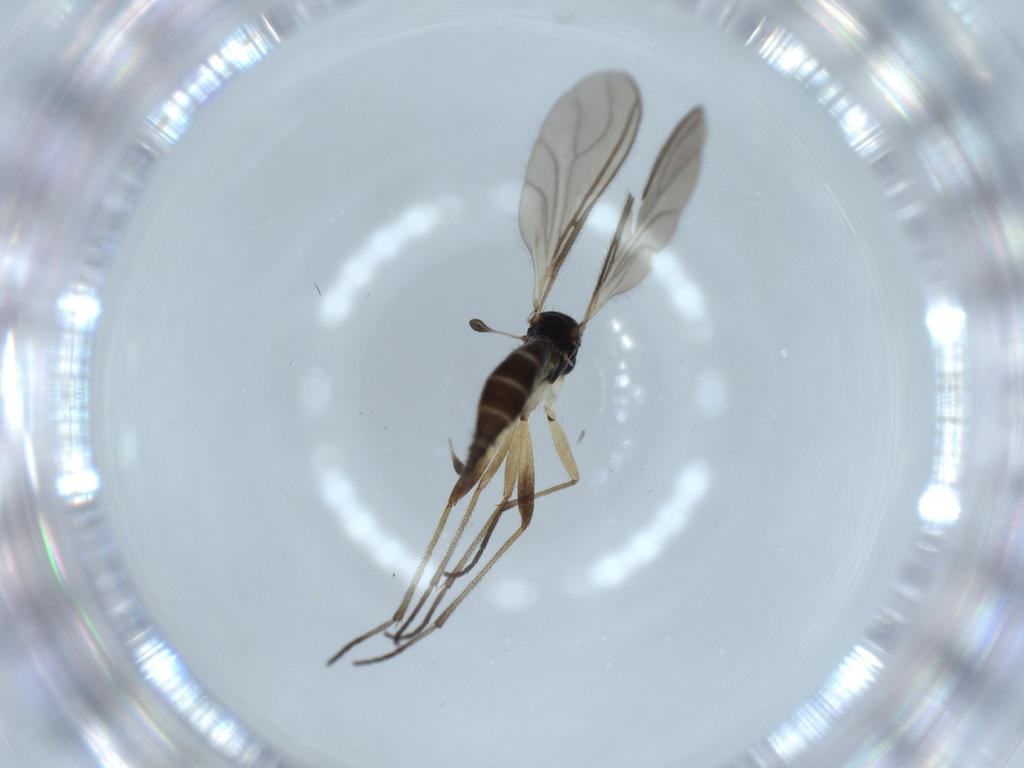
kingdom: Animalia
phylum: Arthropoda
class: Insecta
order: Diptera
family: Sciaridae
